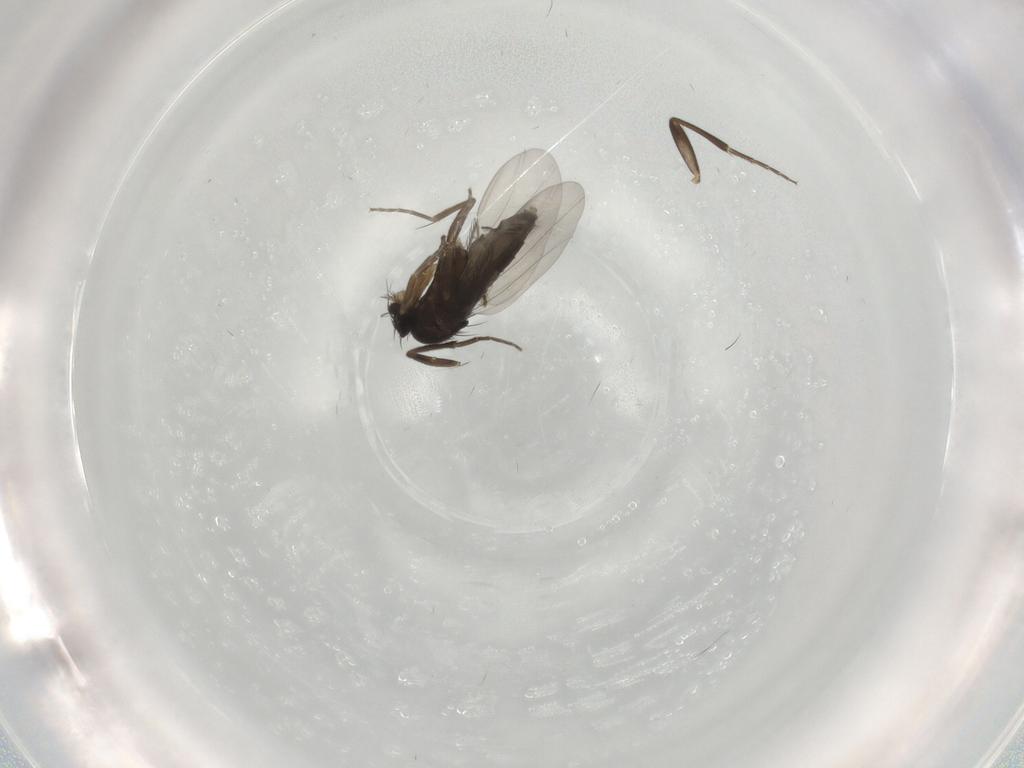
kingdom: Animalia
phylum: Arthropoda
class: Insecta
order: Diptera
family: Phoridae
